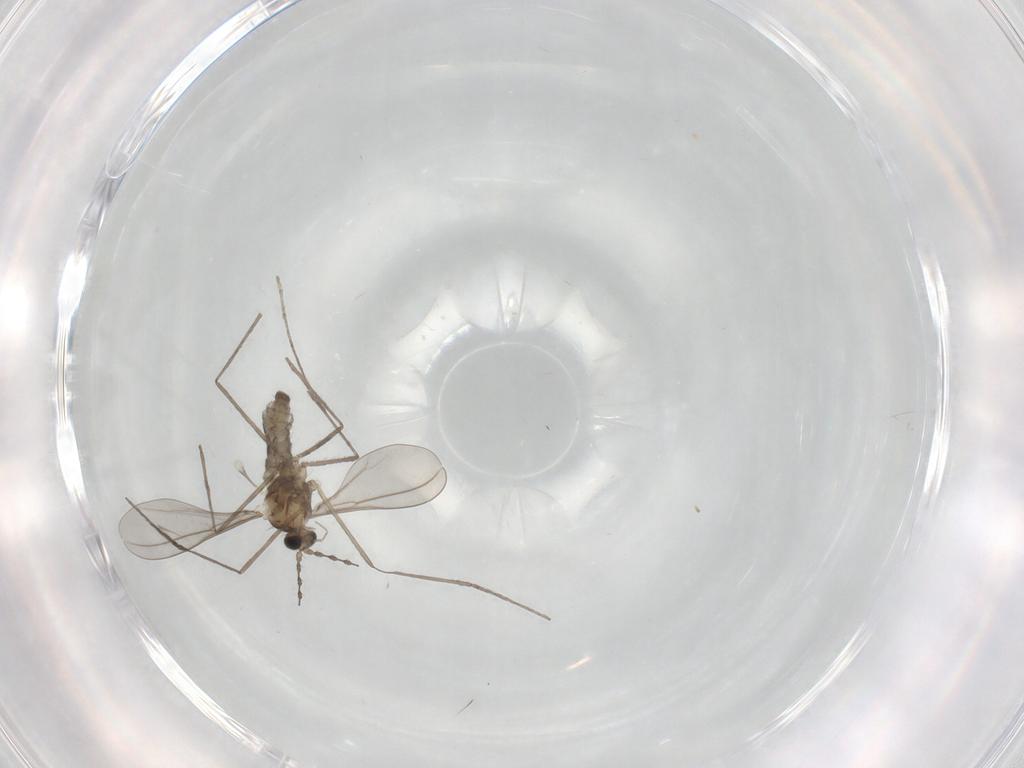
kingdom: Animalia
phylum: Arthropoda
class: Insecta
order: Diptera
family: Cecidomyiidae
